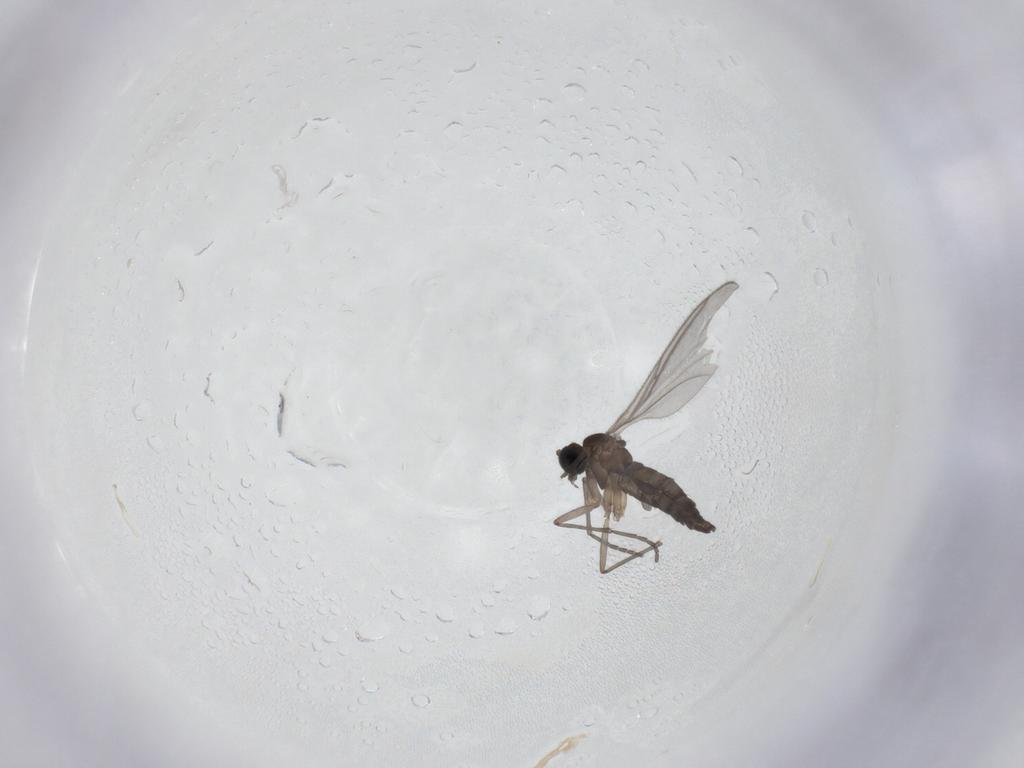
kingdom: Animalia
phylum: Arthropoda
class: Insecta
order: Diptera
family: Sciaridae
